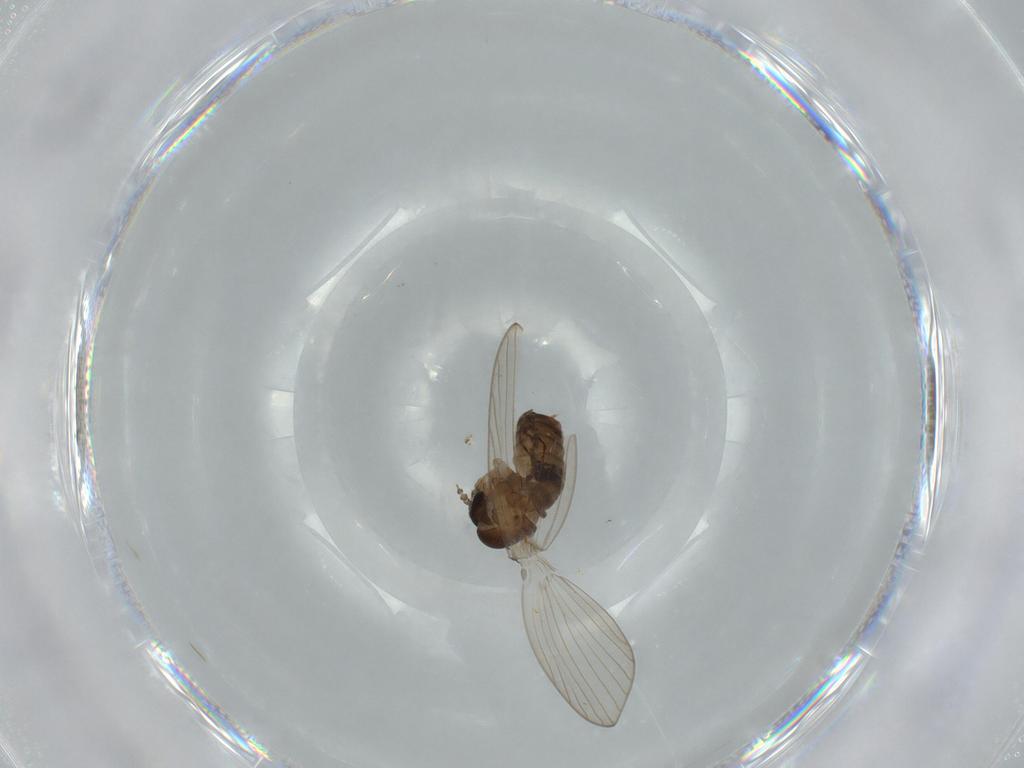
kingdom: Animalia
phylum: Arthropoda
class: Insecta
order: Diptera
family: Cecidomyiidae
